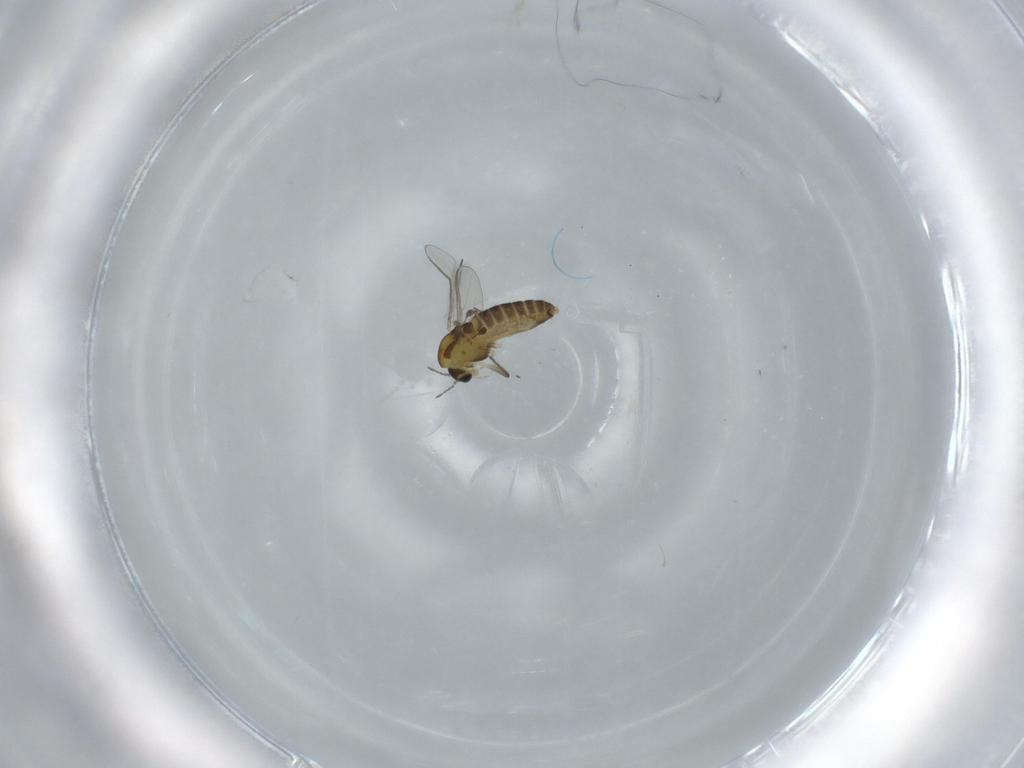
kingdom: Animalia
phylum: Arthropoda
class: Insecta
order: Diptera
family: Chironomidae
